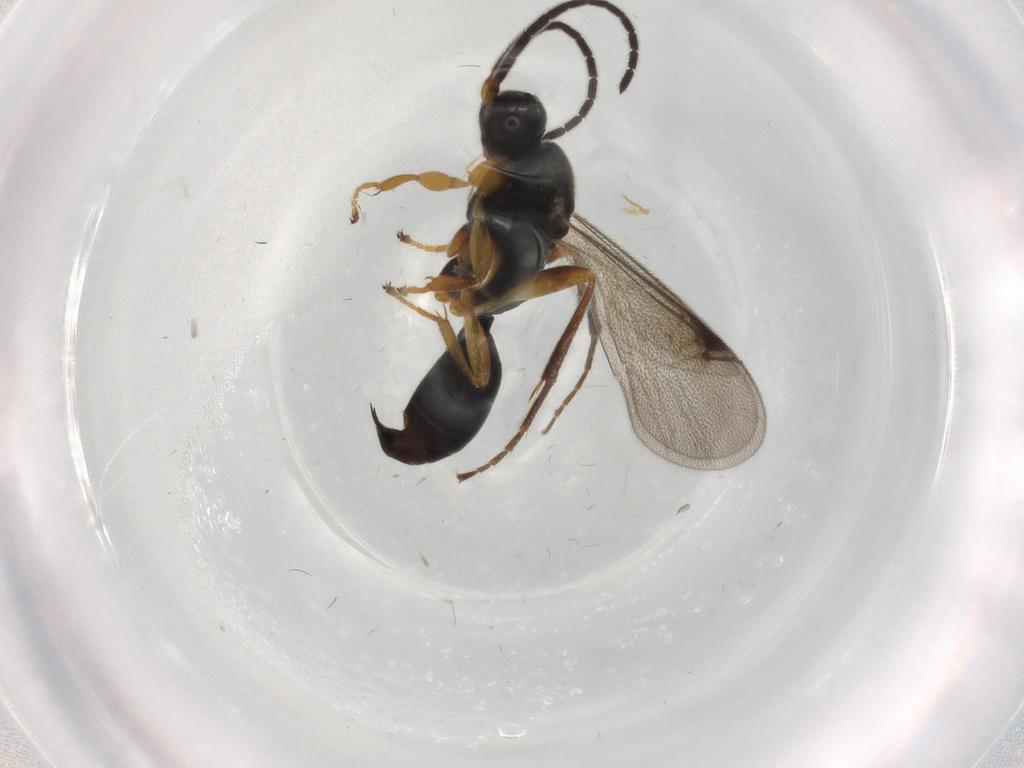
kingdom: Animalia
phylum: Arthropoda
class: Insecta
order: Hymenoptera
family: Proctotrupidae
